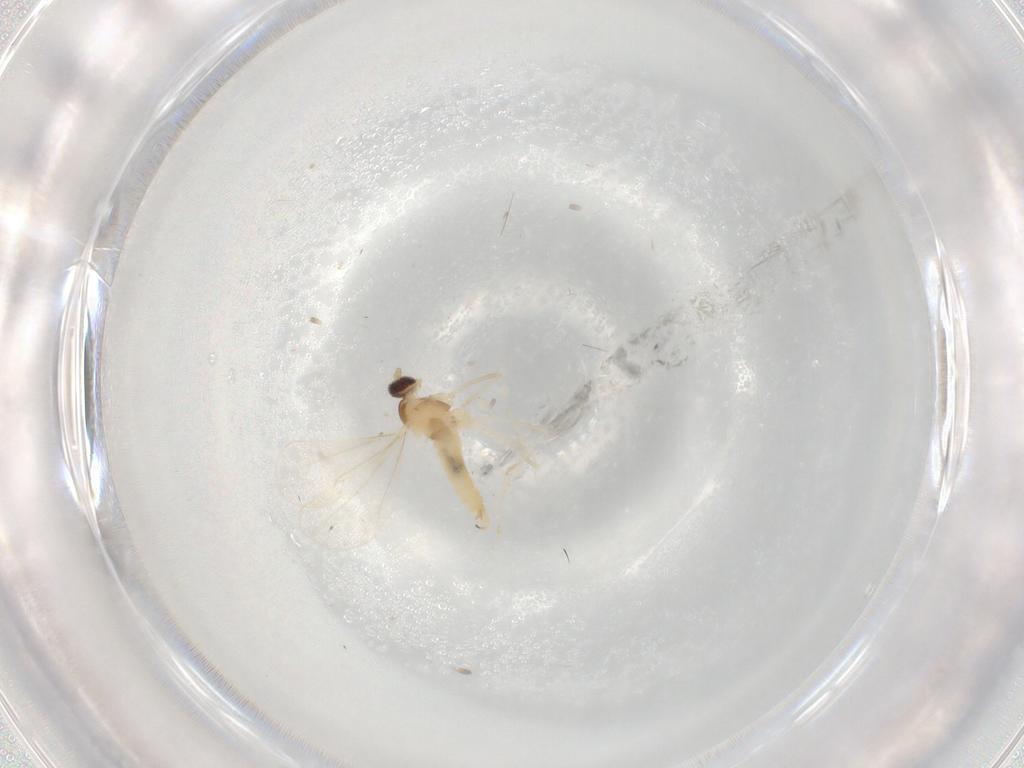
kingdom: Animalia
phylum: Arthropoda
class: Insecta
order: Diptera
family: Cecidomyiidae
